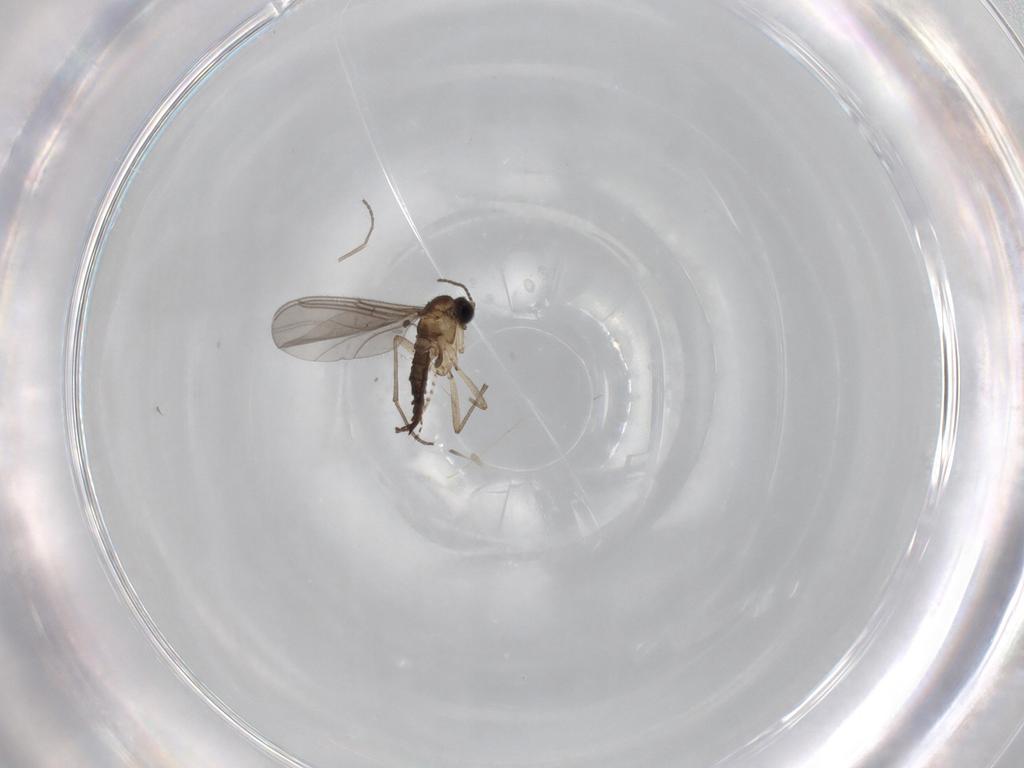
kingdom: Animalia
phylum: Arthropoda
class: Insecta
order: Diptera
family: Sciaridae
